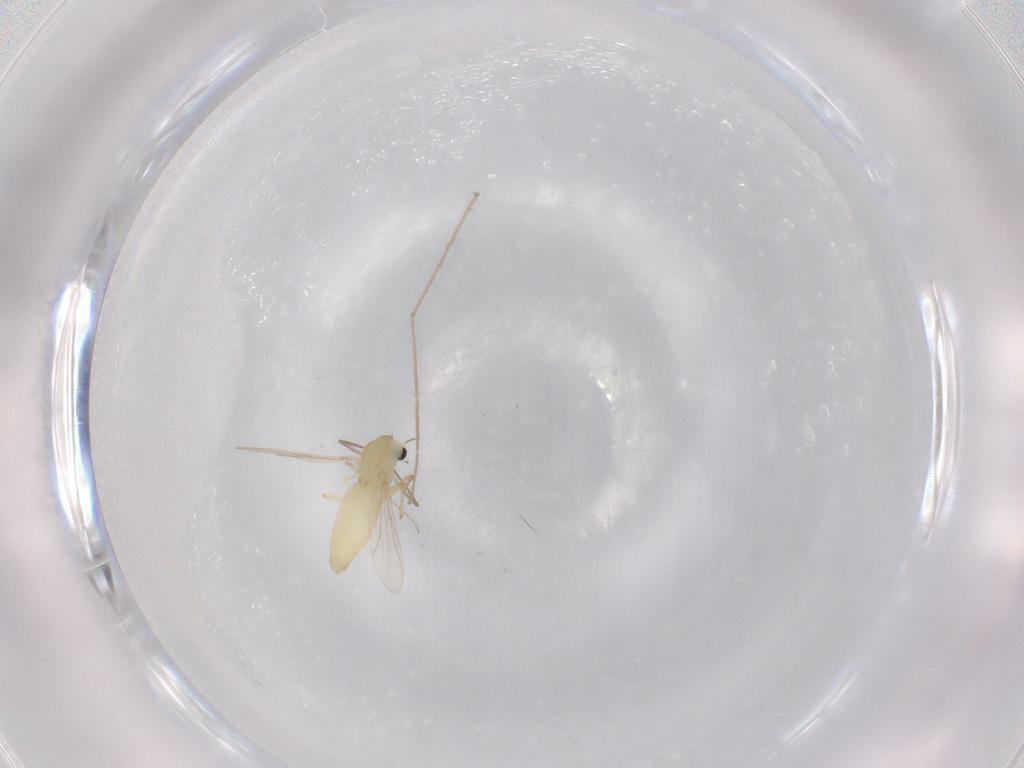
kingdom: Animalia
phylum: Arthropoda
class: Insecta
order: Diptera
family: Chironomidae
